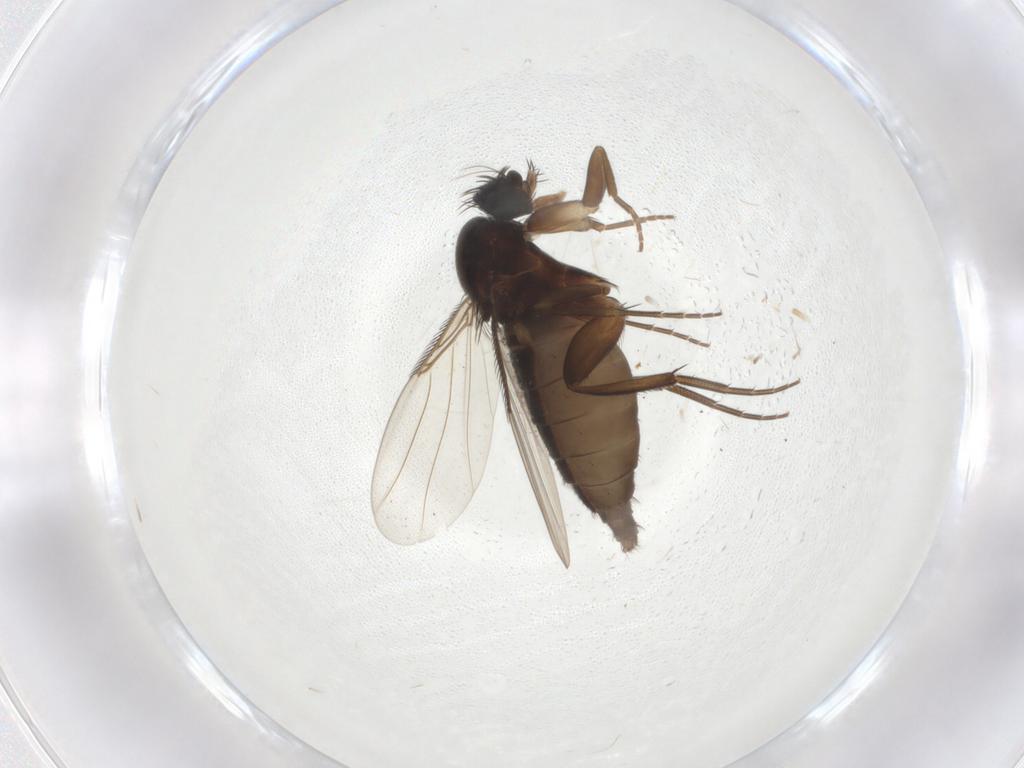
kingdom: Animalia
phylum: Arthropoda
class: Insecta
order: Diptera
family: Phoridae
